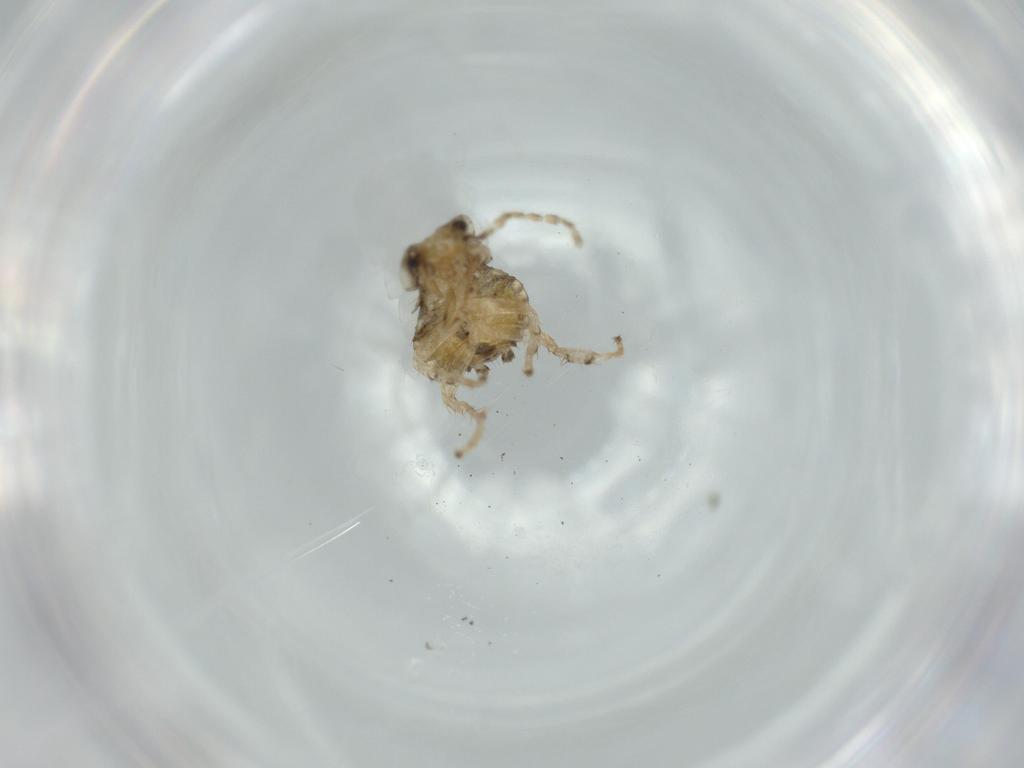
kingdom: Animalia
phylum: Arthropoda
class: Insecta
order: Blattodea
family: Ectobiidae
